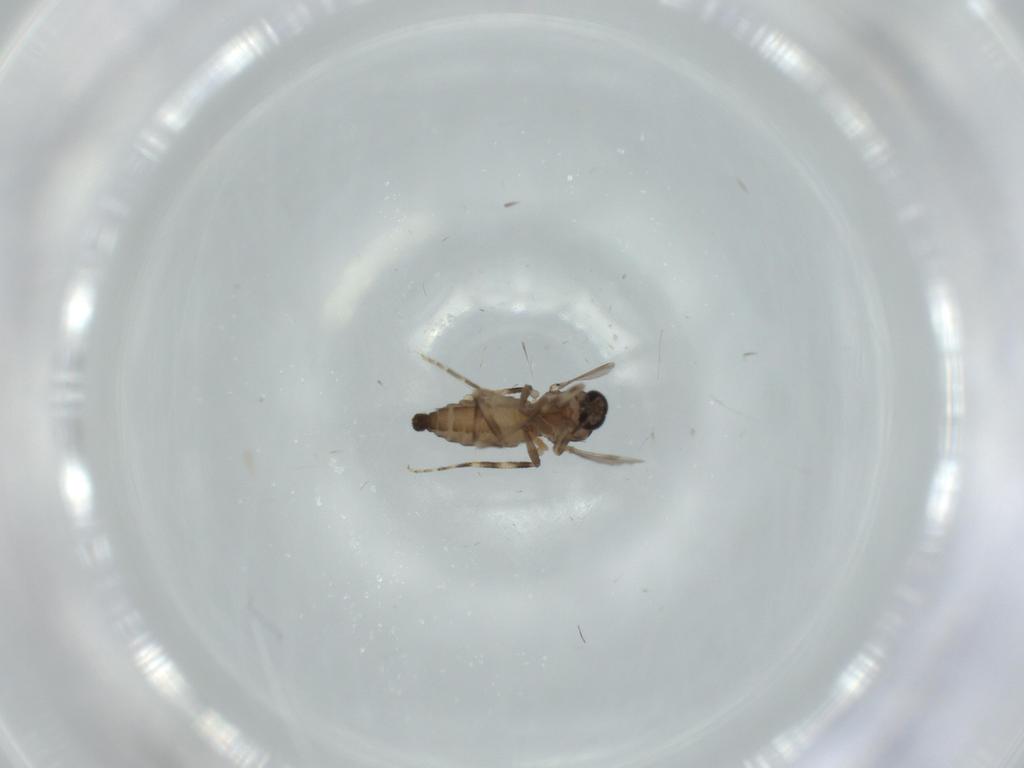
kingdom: Animalia
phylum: Arthropoda
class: Insecta
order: Diptera
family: Ceratopogonidae
